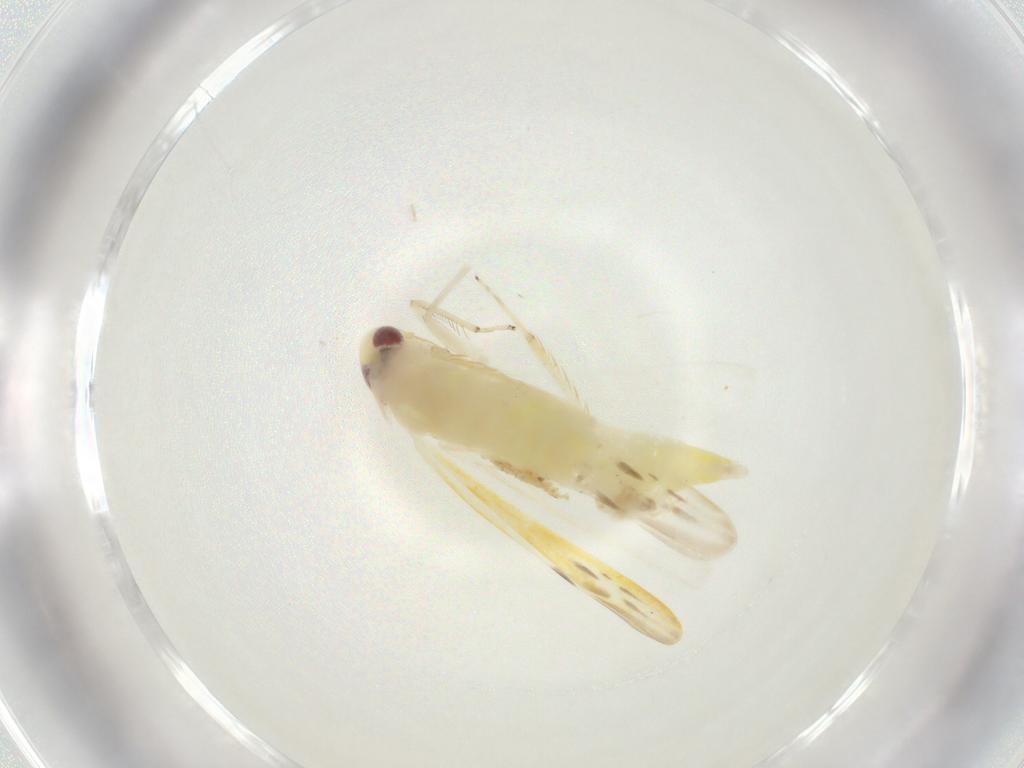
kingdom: Animalia
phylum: Arthropoda
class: Insecta
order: Hemiptera
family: Cicadellidae
